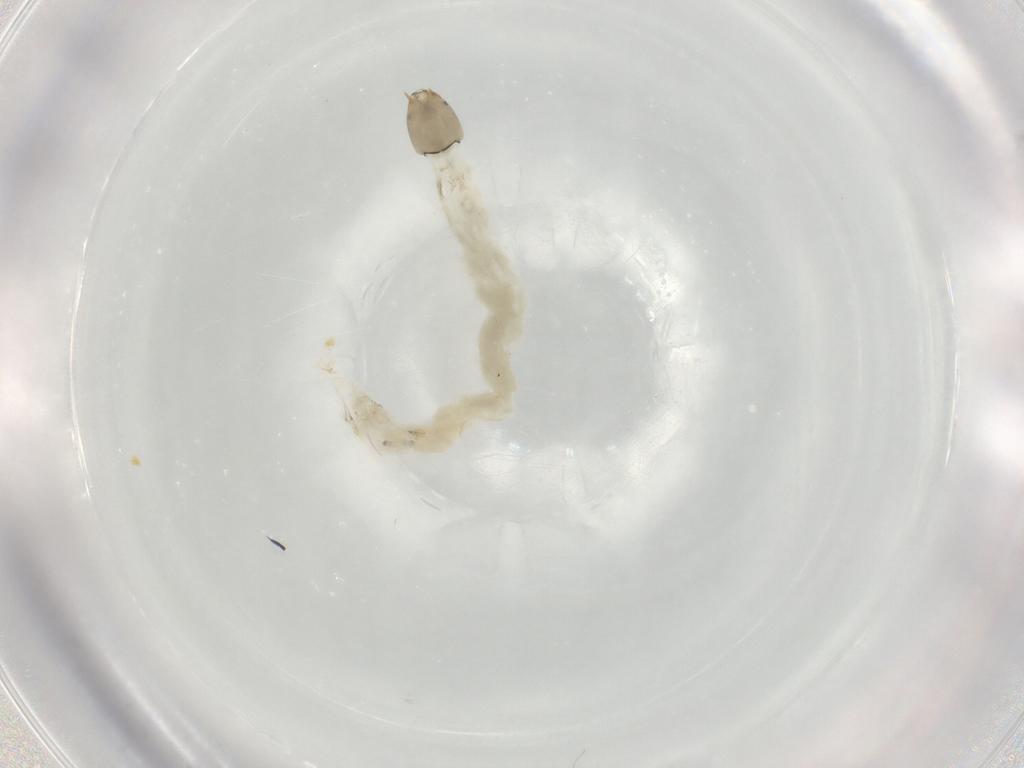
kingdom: Animalia
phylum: Arthropoda
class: Insecta
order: Diptera
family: Chironomidae
